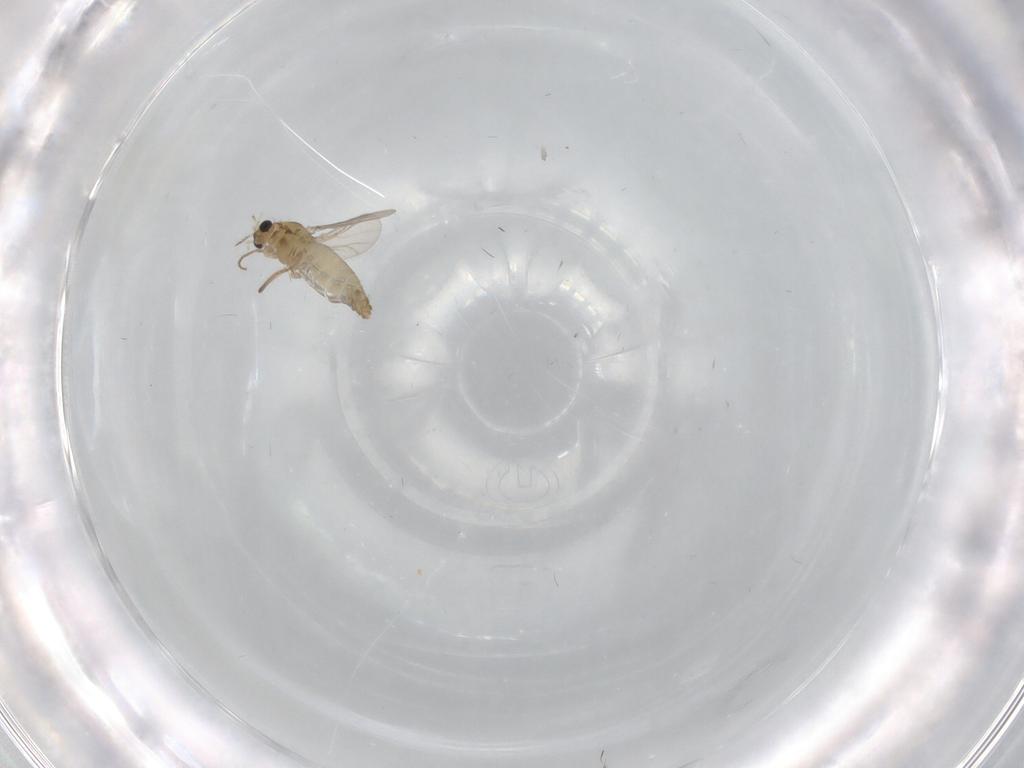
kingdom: Animalia
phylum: Arthropoda
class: Insecta
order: Diptera
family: Chironomidae
